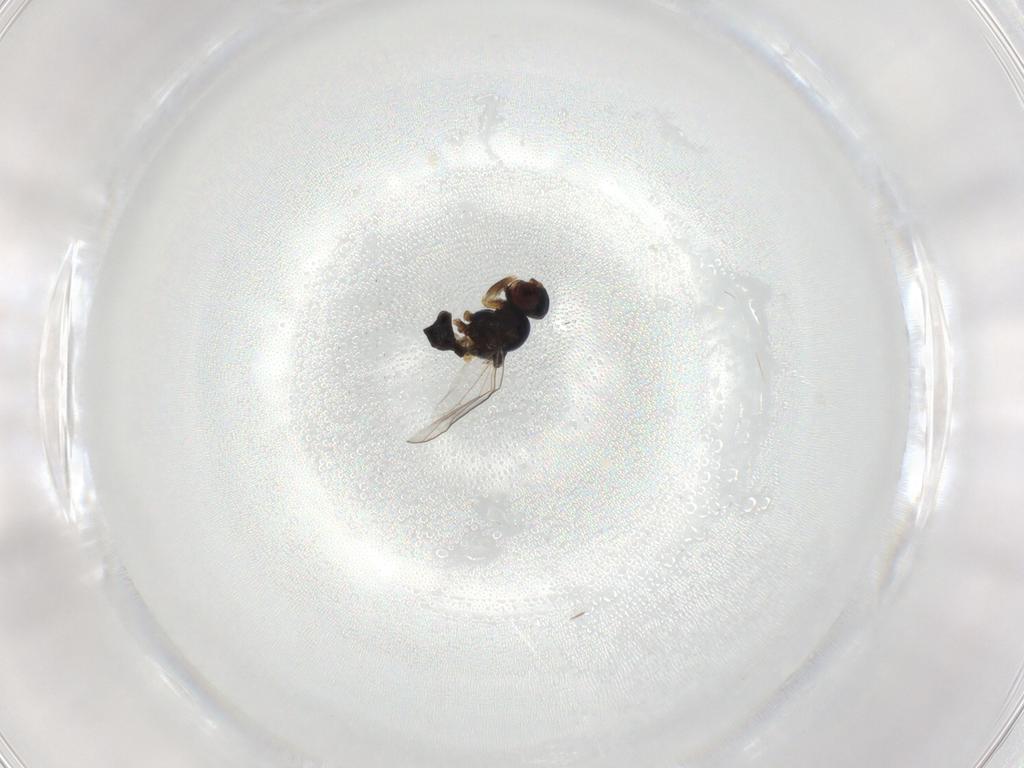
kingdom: Animalia
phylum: Arthropoda
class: Insecta
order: Diptera
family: Chloropidae
